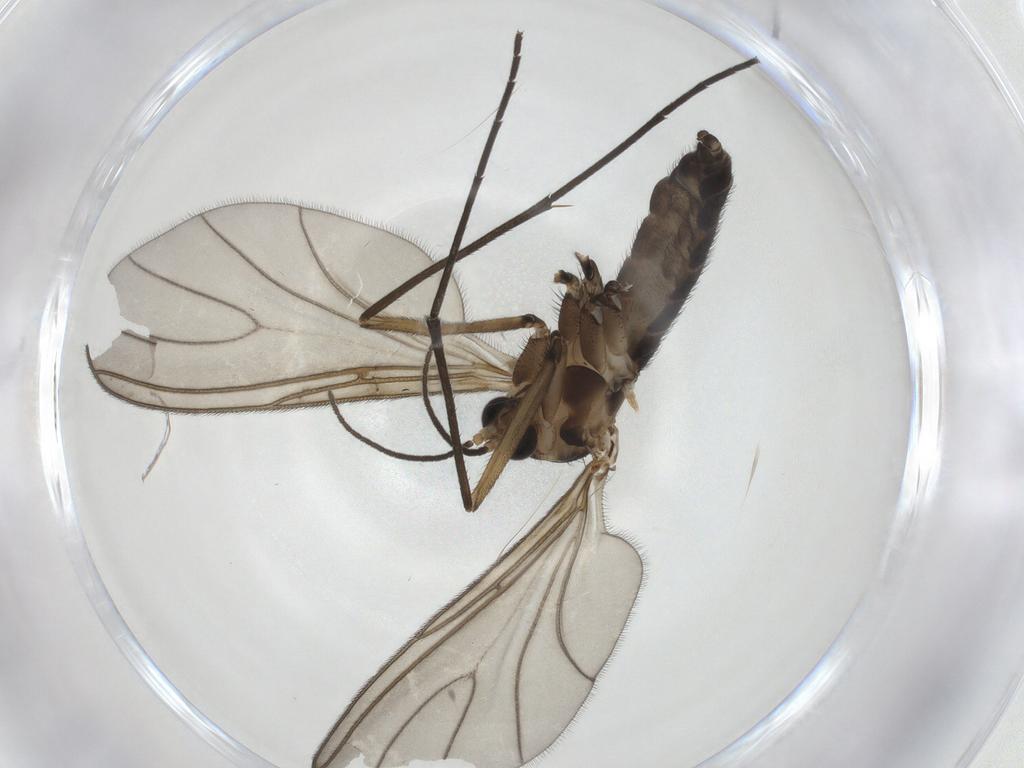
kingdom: Animalia
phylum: Arthropoda
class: Insecta
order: Diptera
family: Sciaridae
